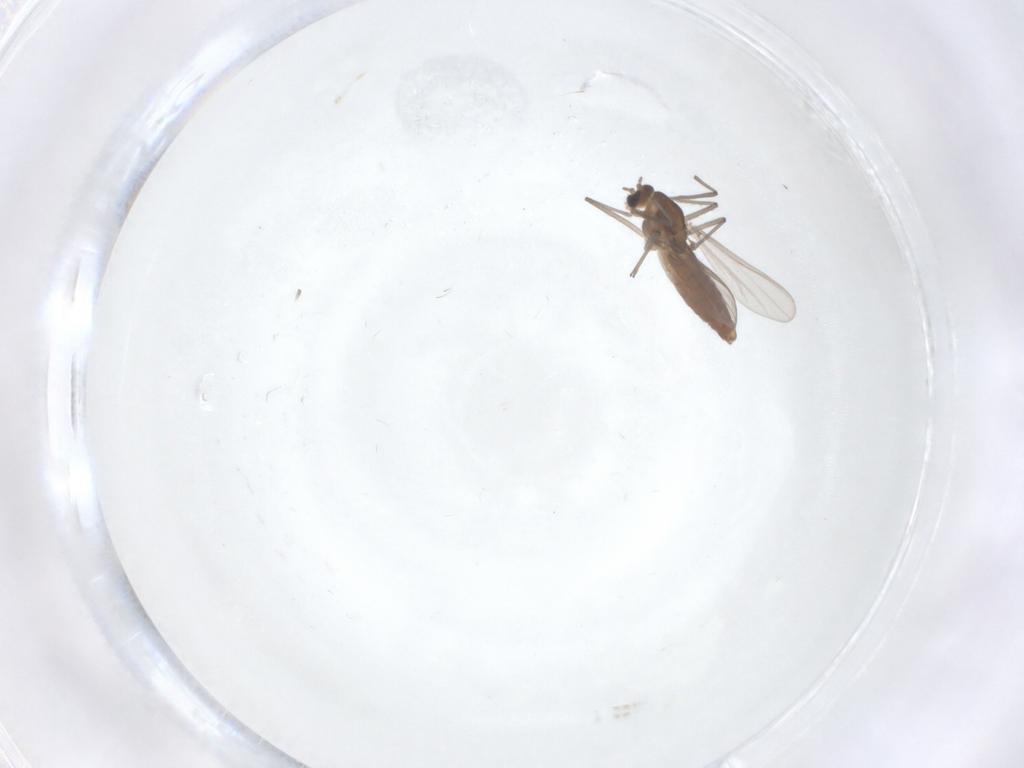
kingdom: Animalia
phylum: Arthropoda
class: Insecta
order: Diptera
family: Chironomidae
